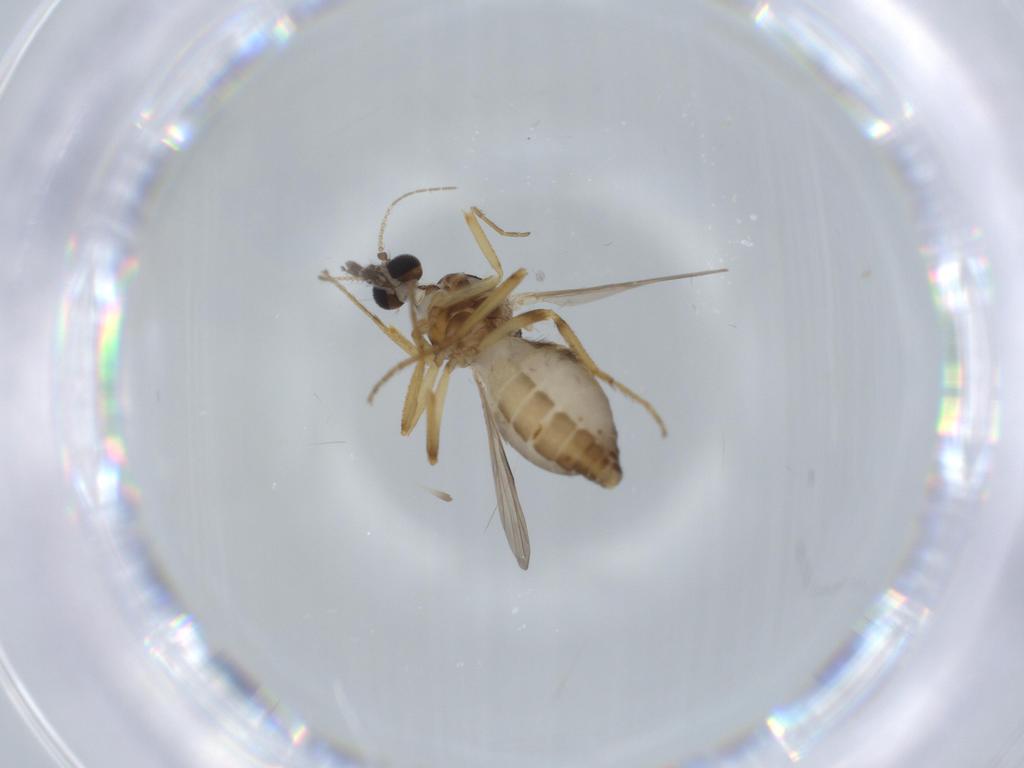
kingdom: Animalia
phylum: Arthropoda
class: Insecta
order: Diptera
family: Ceratopogonidae
